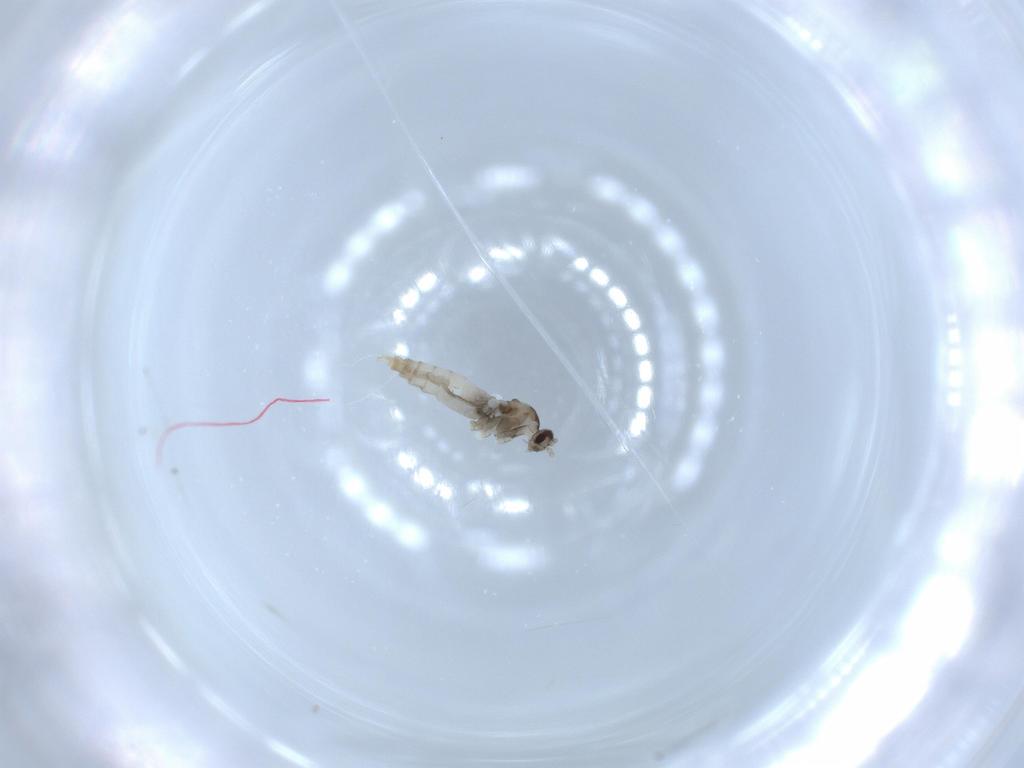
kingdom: Animalia
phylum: Arthropoda
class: Insecta
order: Diptera
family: Chironomidae
